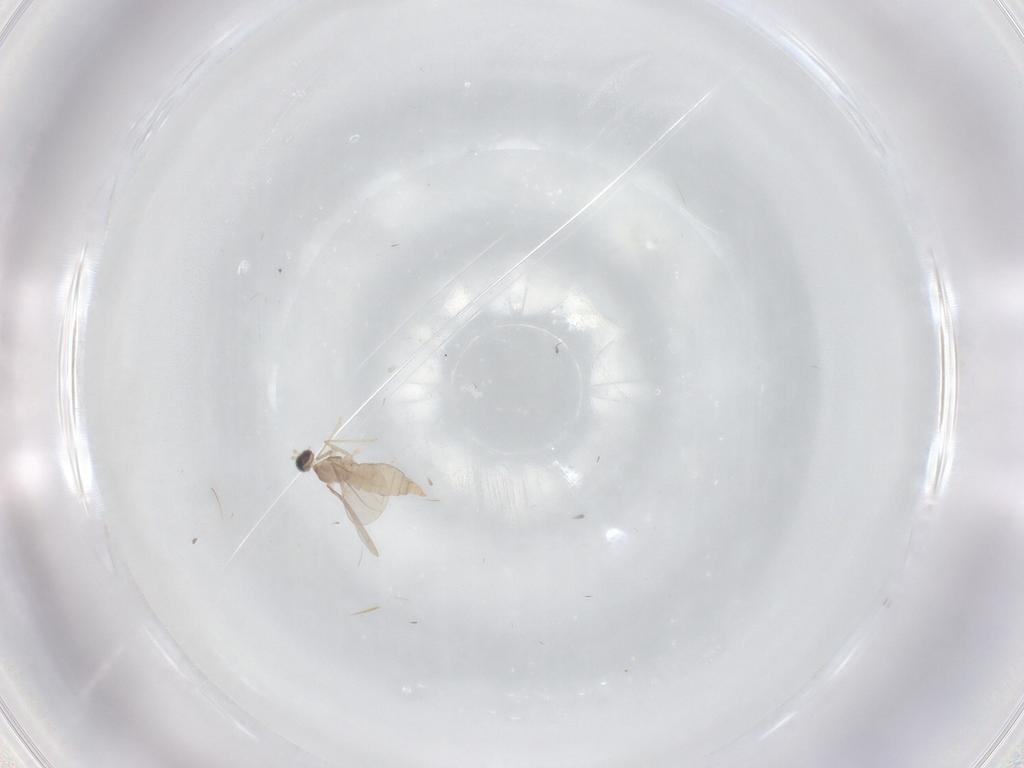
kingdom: Animalia
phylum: Arthropoda
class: Insecta
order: Diptera
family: Cecidomyiidae
